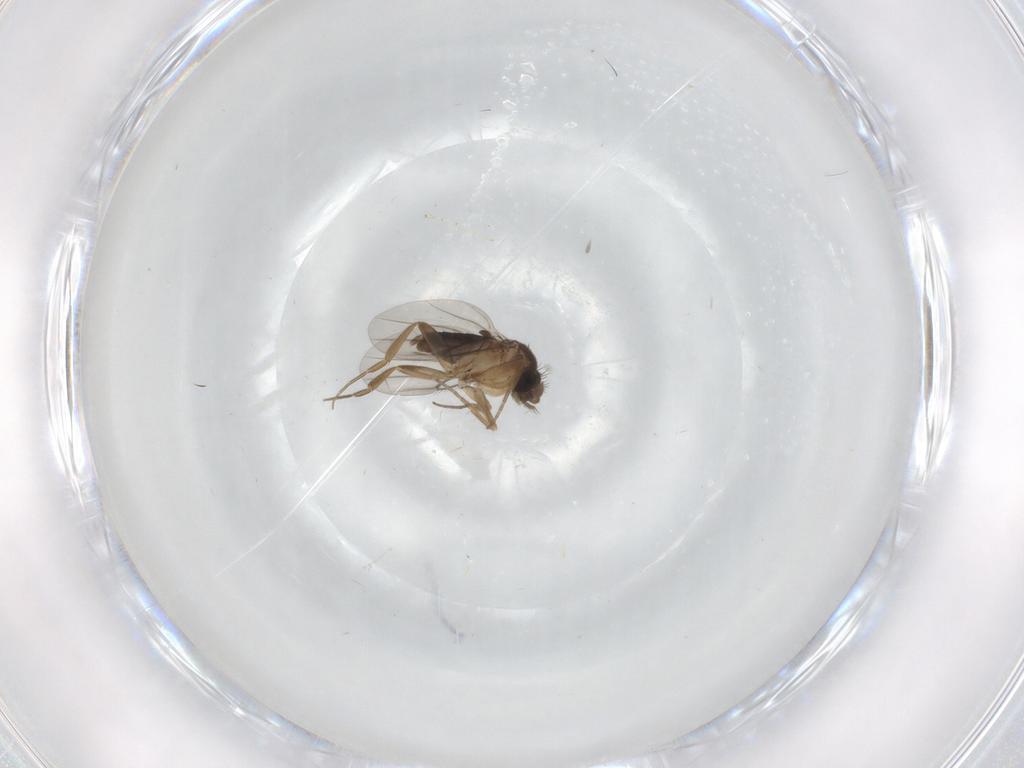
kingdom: Animalia
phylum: Arthropoda
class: Insecta
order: Diptera
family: Phoridae
